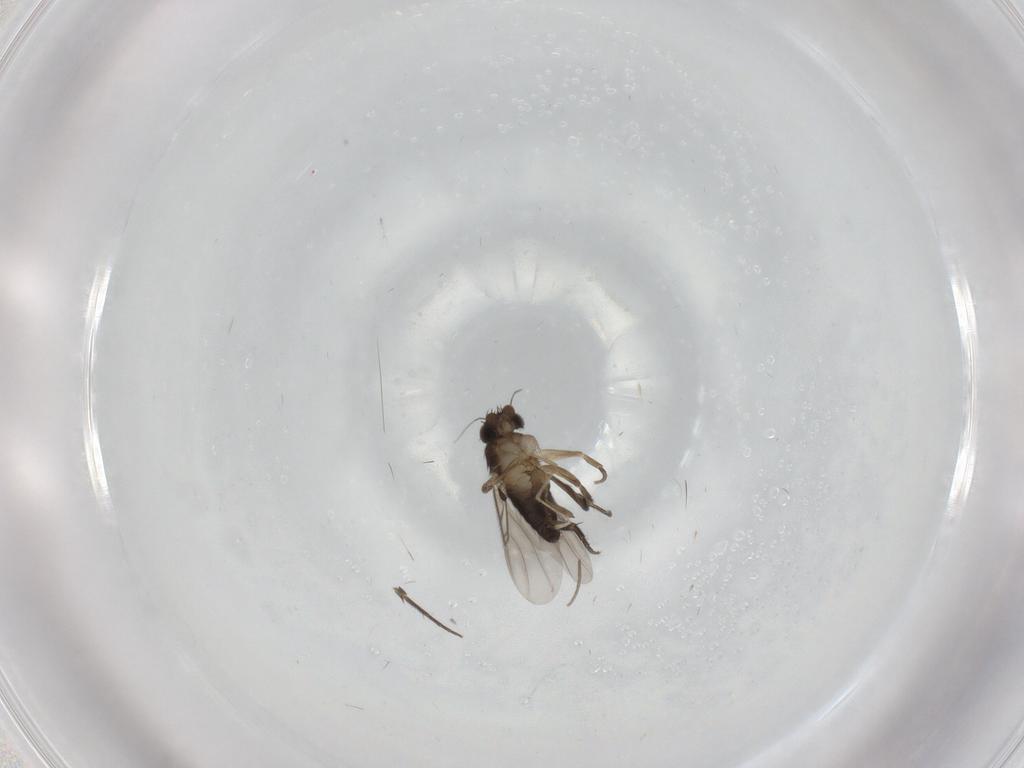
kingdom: Animalia
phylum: Arthropoda
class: Insecta
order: Diptera
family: Phoridae
